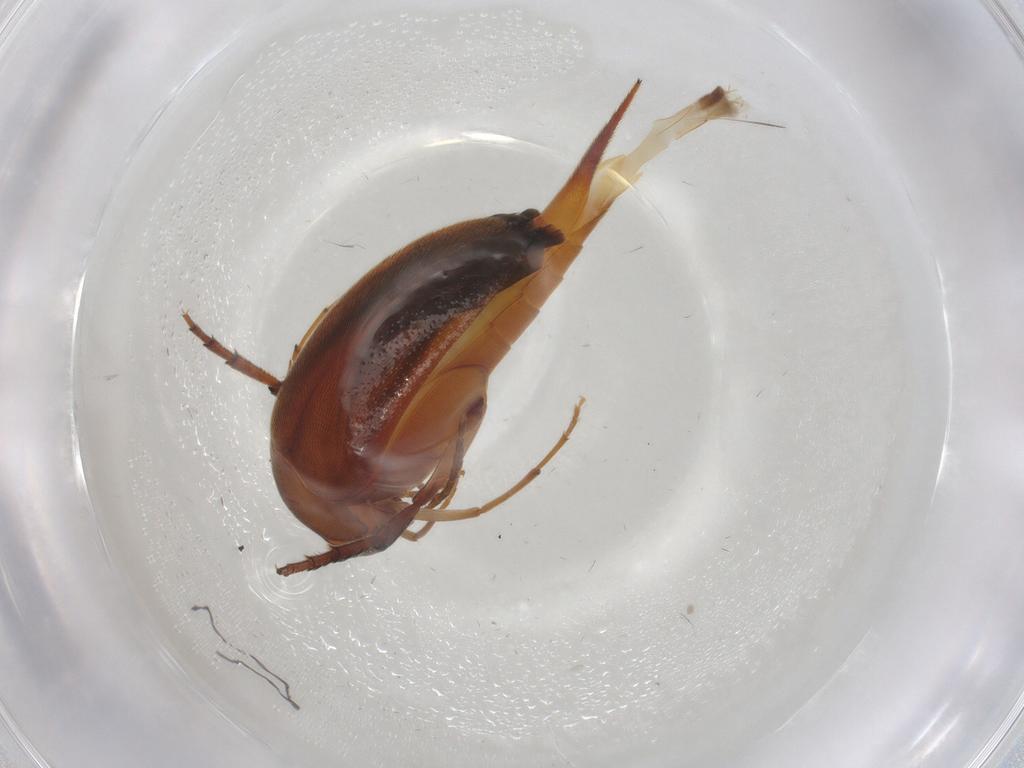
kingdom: Animalia
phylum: Arthropoda
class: Insecta
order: Coleoptera
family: Mordellidae
